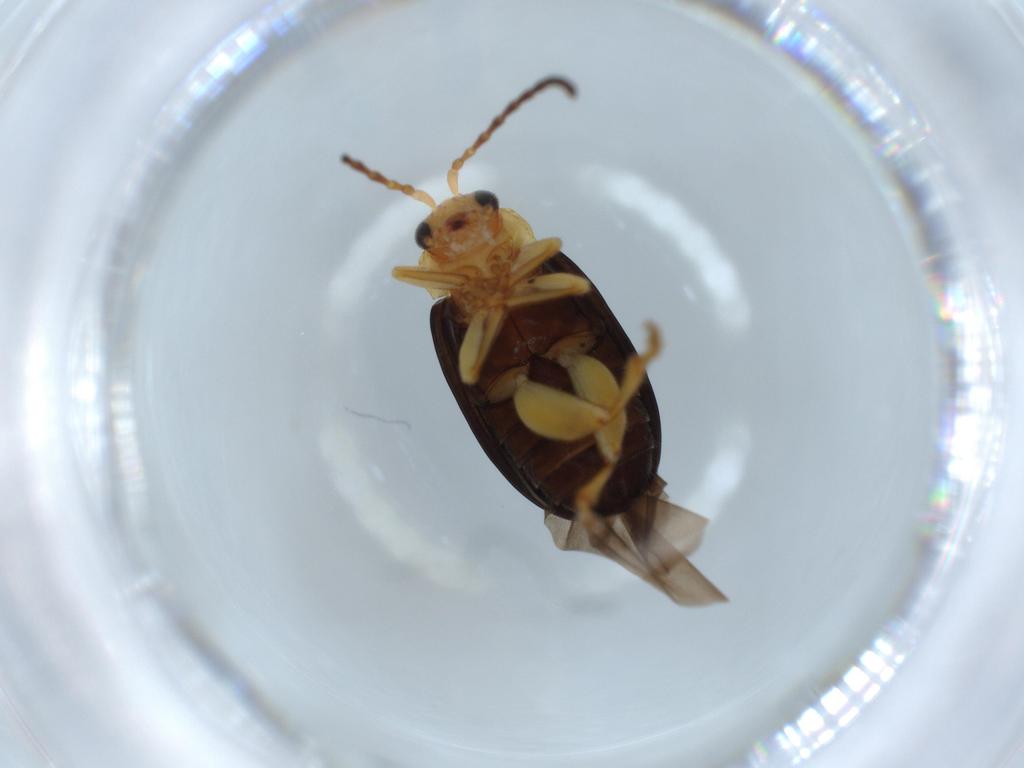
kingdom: Animalia
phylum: Arthropoda
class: Insecta
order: Coleoptera
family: Chrysomelidae
